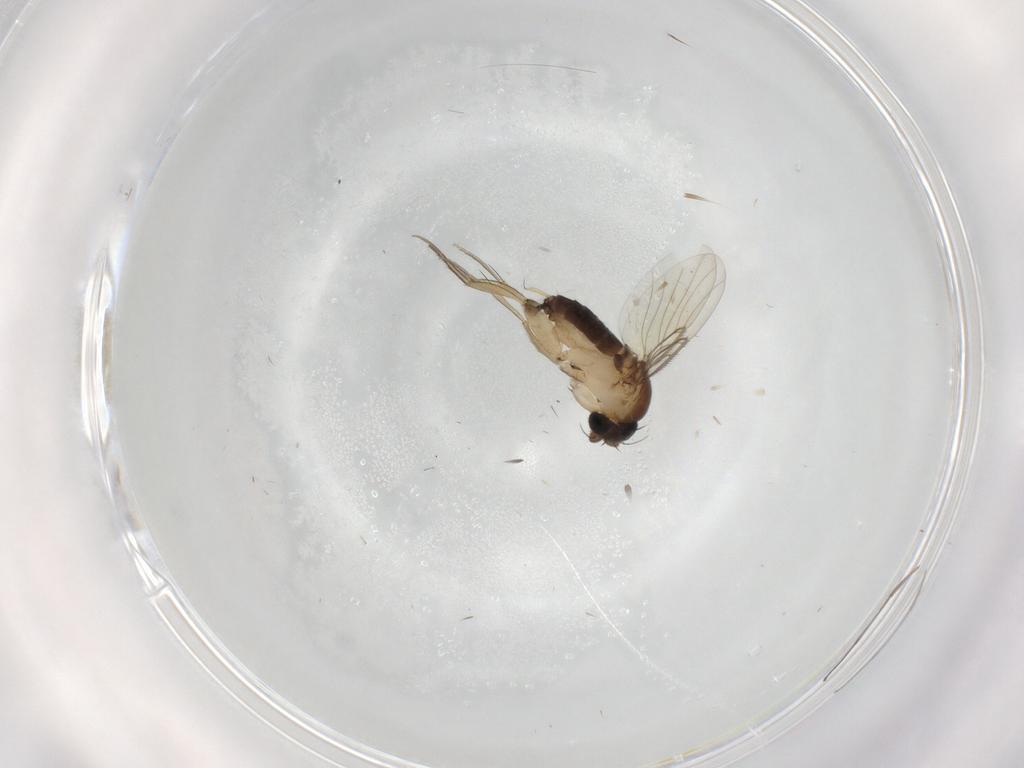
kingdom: Animalia
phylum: Arthropoda
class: Insecta
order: Diptera
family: Phoridae
